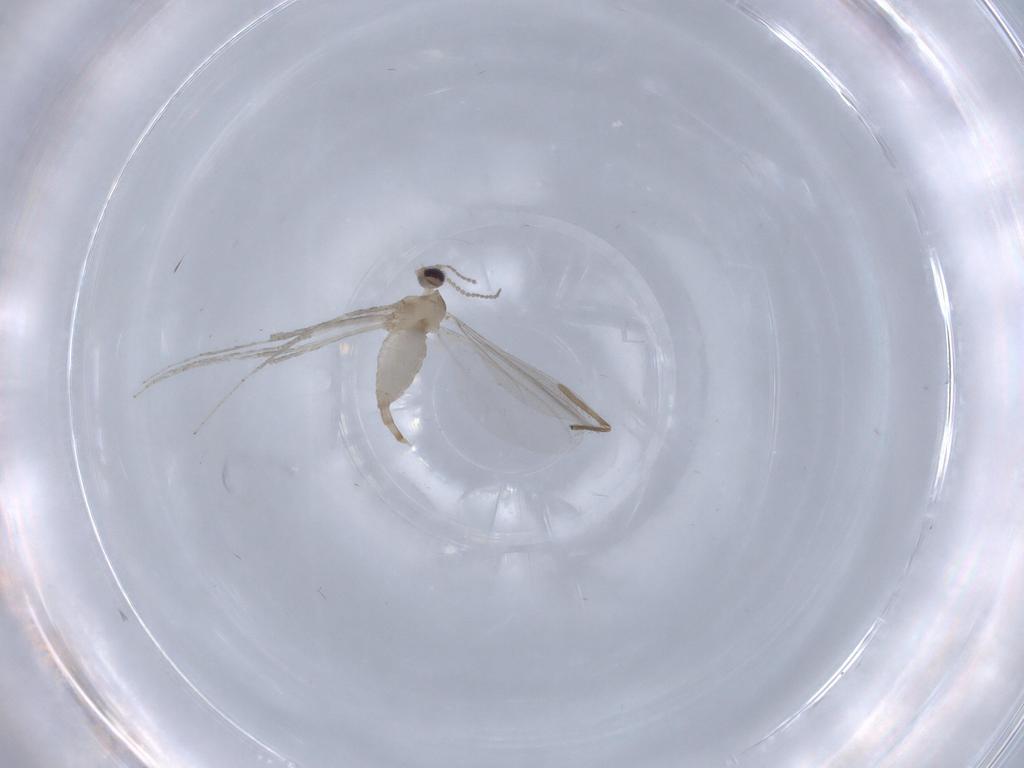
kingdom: Animalia
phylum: Arthropoda
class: Insecta
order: Diptera
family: Cecidomyiidae
